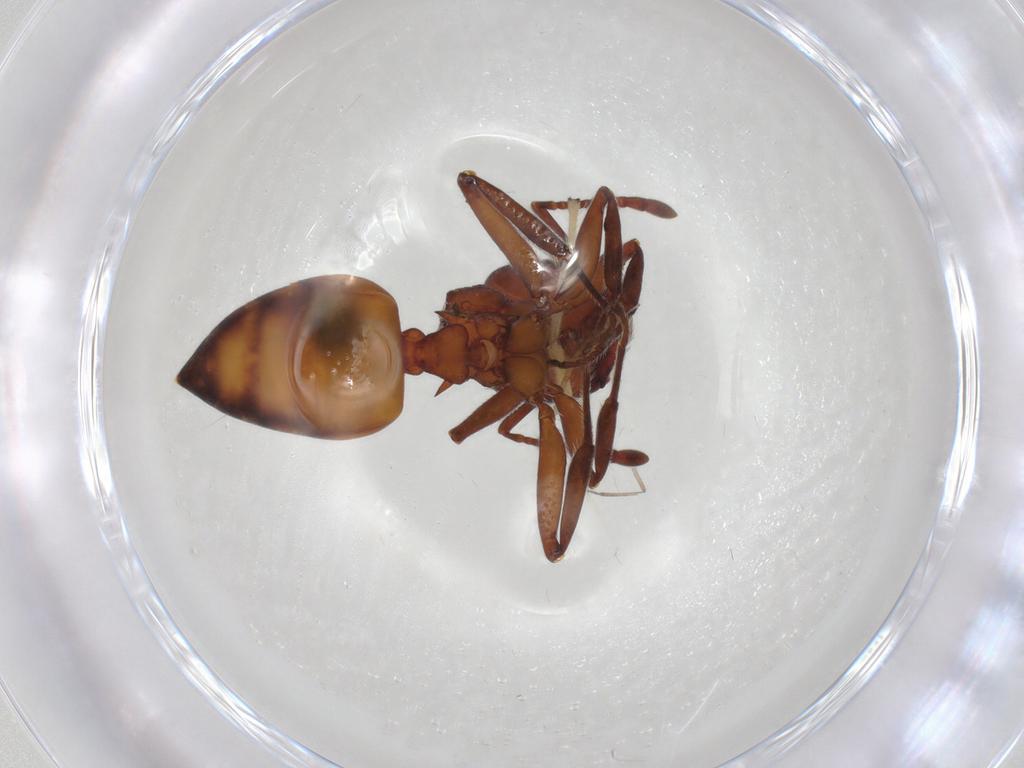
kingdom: Animalia
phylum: Arthropoda
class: Insecta
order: Hymenoptera
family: Formicidae
